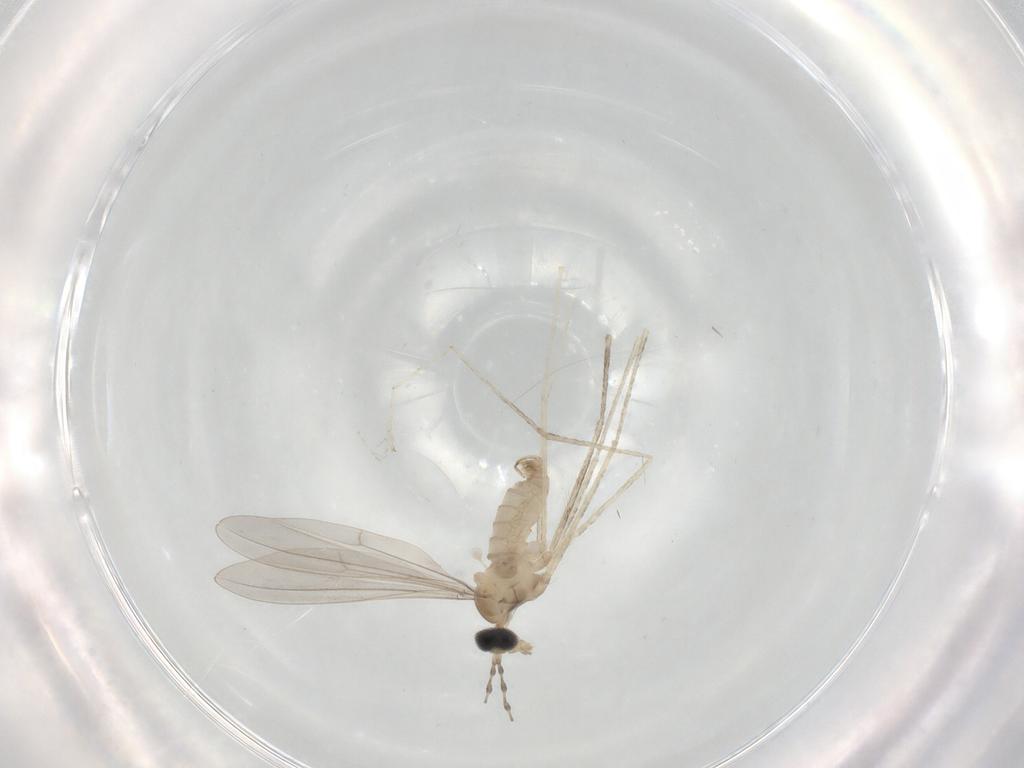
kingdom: Animalia
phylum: Arthropoda
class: Insecta
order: Diptera
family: Cecidomyiidae
